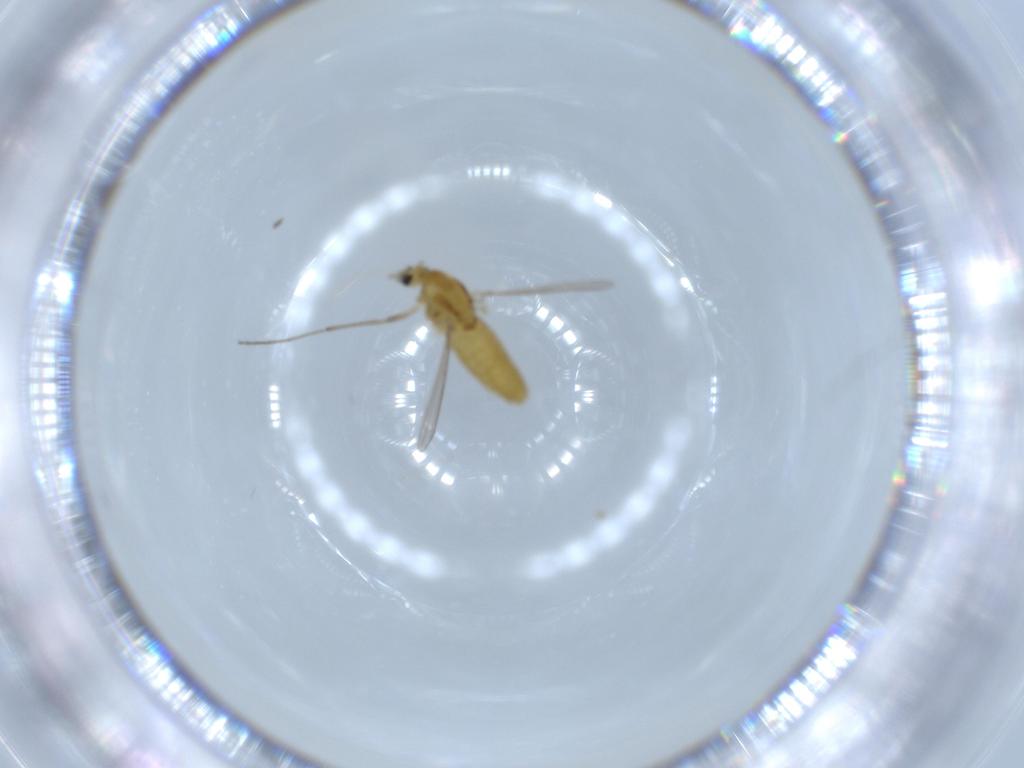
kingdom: Animalia
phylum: Arthropoda
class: Insecta
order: Diptera
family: Chironomidae
